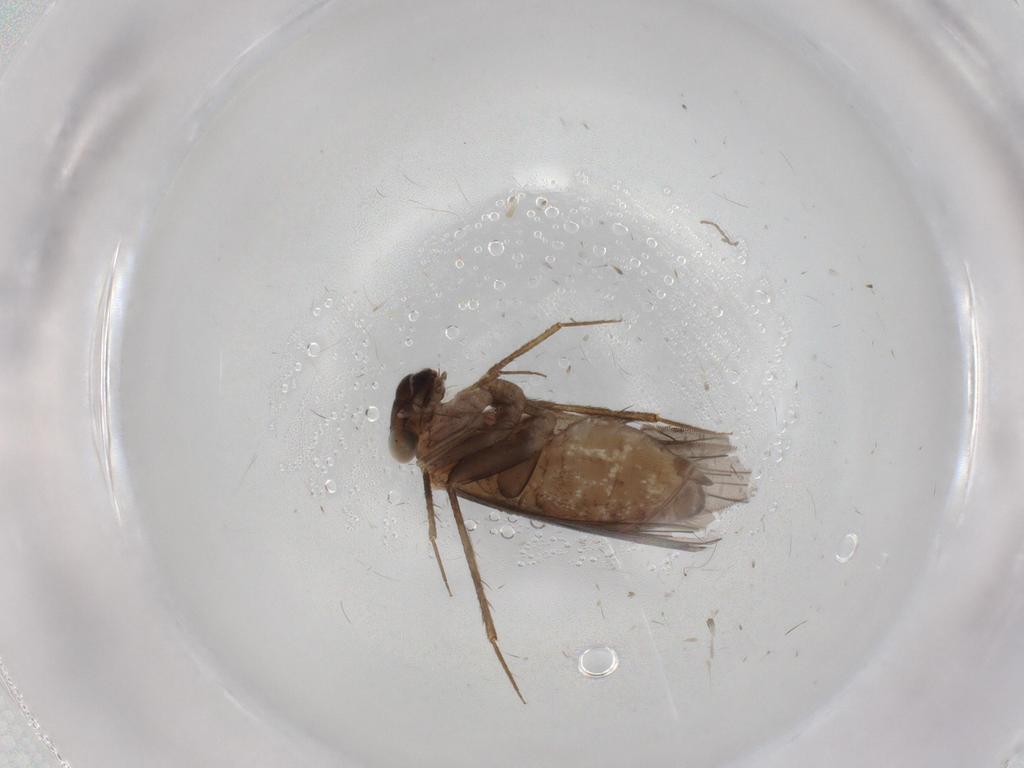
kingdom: Animalia
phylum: Arthropoda
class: Insecta
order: Psocodea
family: Lepidopsocidae
